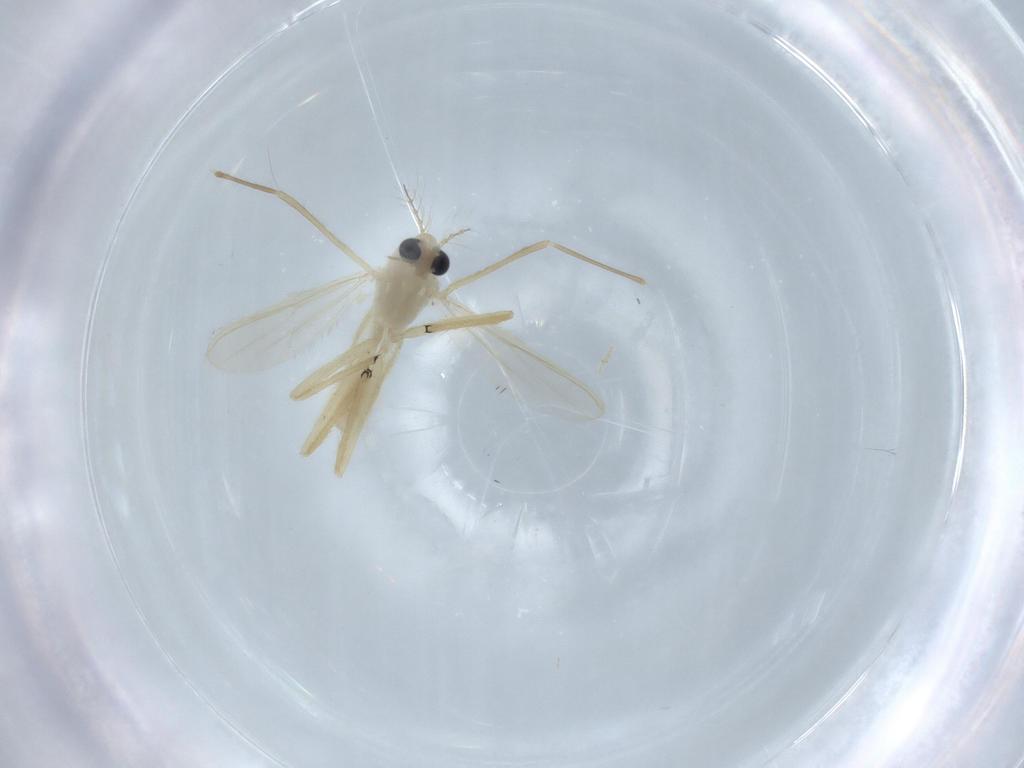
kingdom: Animalia
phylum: Arthropoda
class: Insecta
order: Diptera
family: Chironomidae
